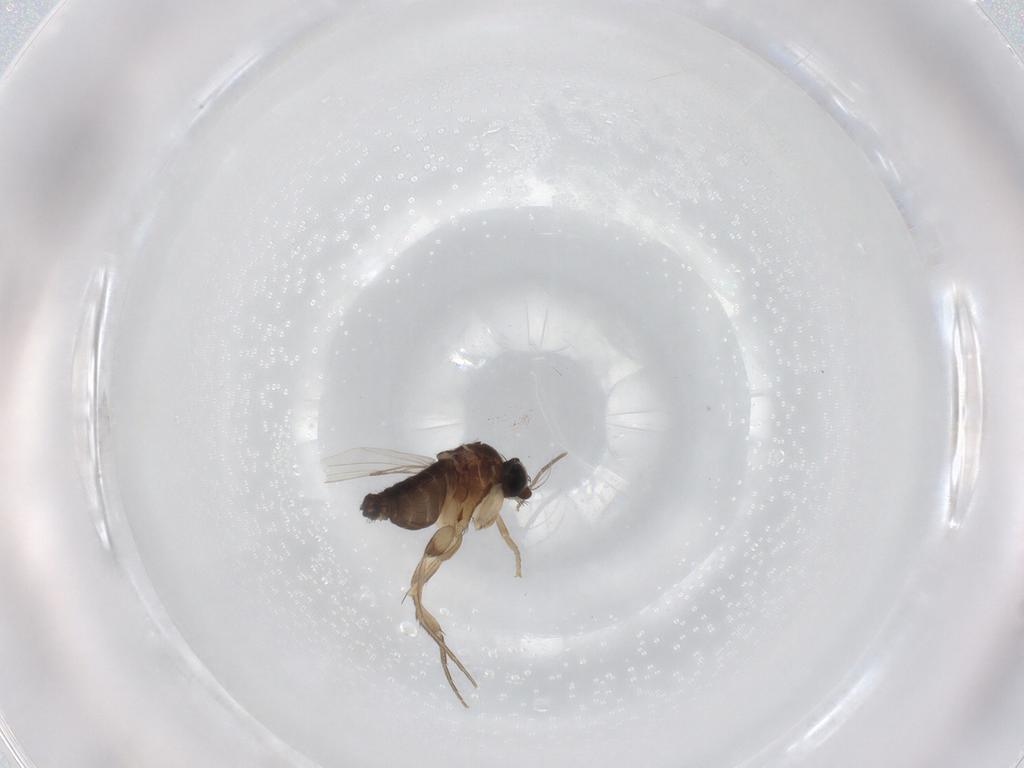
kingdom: Animalia
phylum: Arthropoda
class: Insecta
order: Diptera
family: Phoridae
